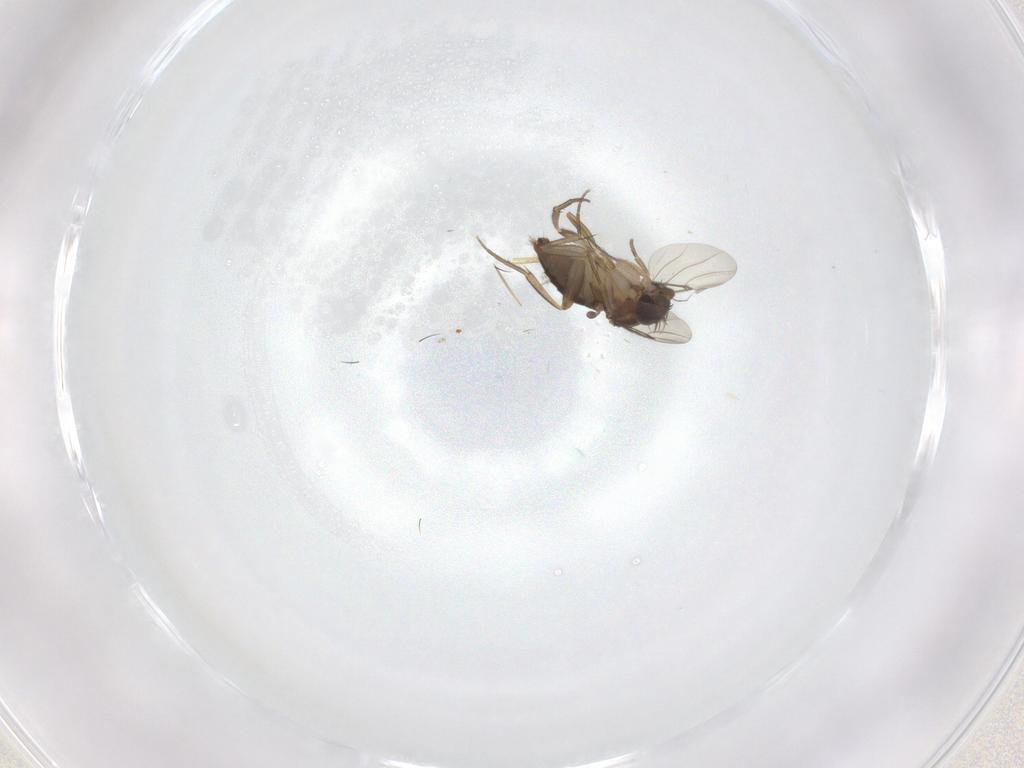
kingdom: Animalia
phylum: Arthropoda
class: Insecta
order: Diptera
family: Phoridae
